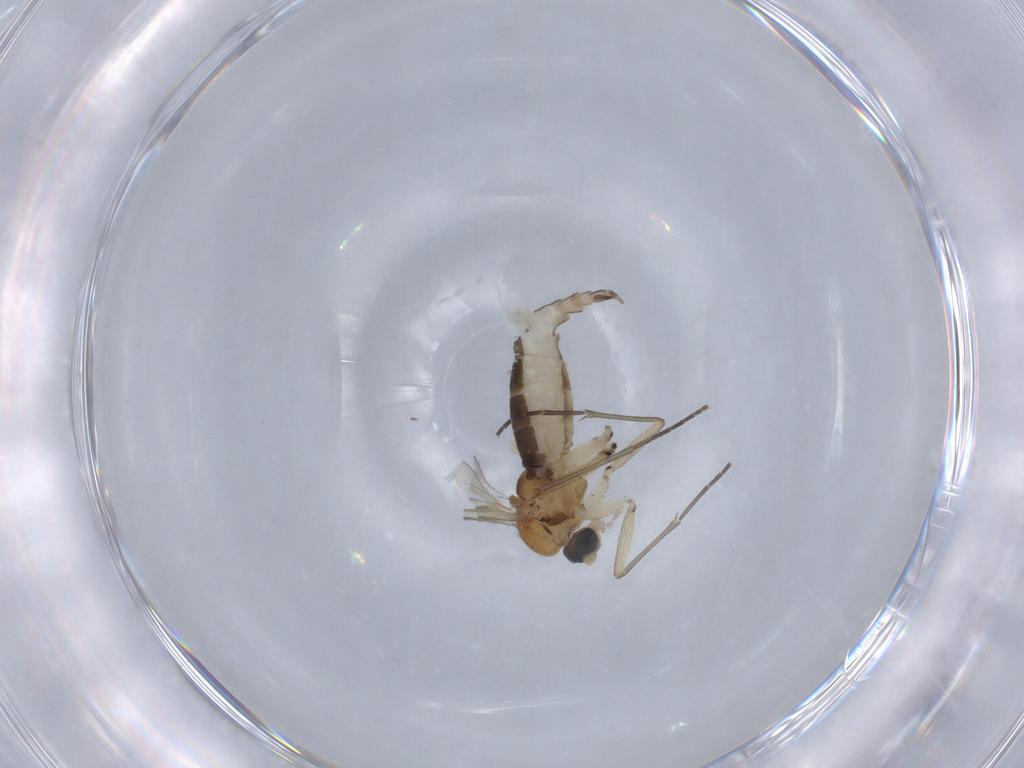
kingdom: Animalia
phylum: Arthropoda
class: Insecta
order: Diptera
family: Sciaridae
